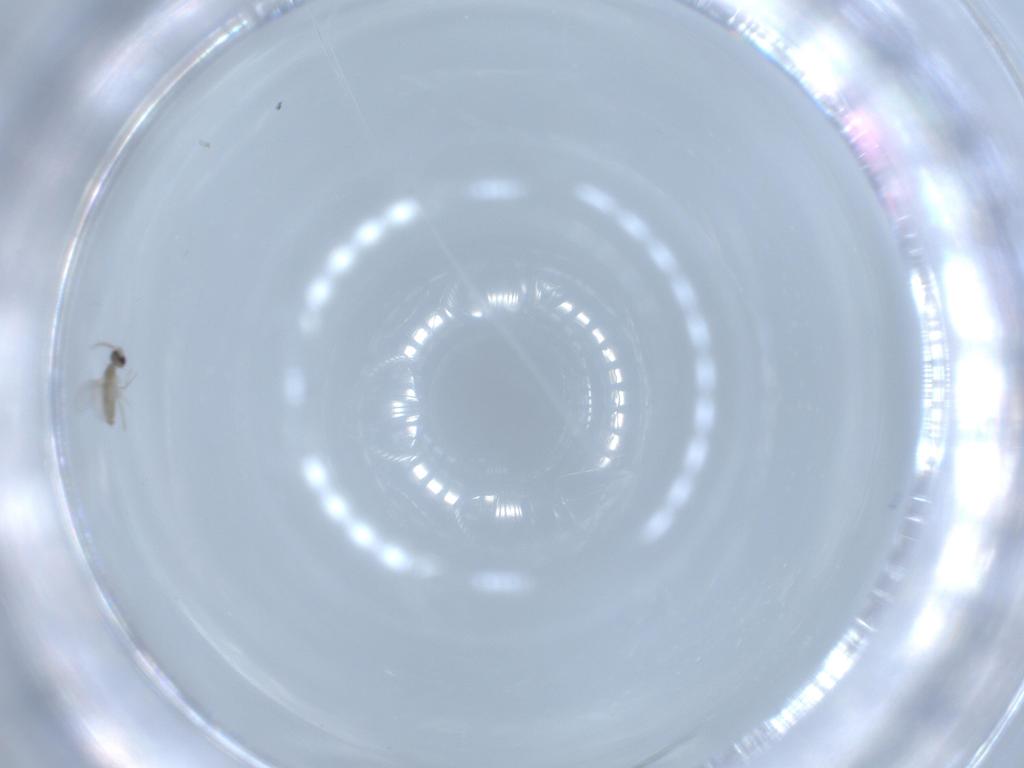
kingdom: Animalia
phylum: Arthropoda
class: Insecta
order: Diptera
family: Cecidomyiidae
